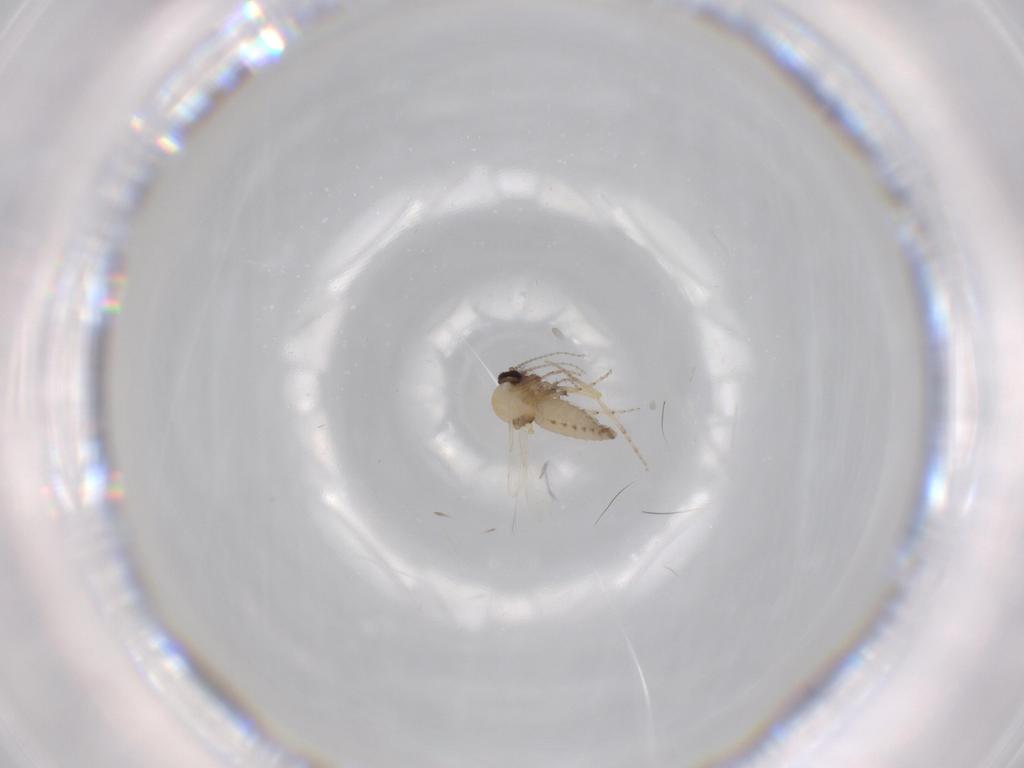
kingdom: Animalia
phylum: Arthropoda
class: Insecta
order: Diptera
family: Ceratopogonidae
